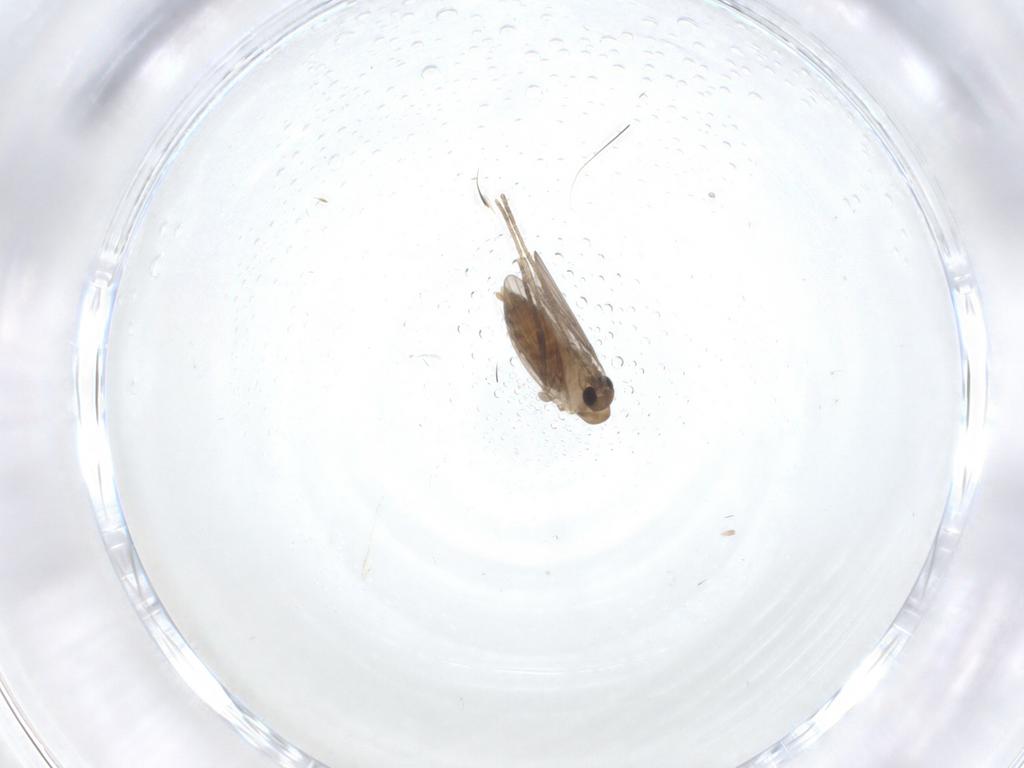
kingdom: Animalia
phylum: Arthropoda
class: Insecta
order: Diptera
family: Phoridae
